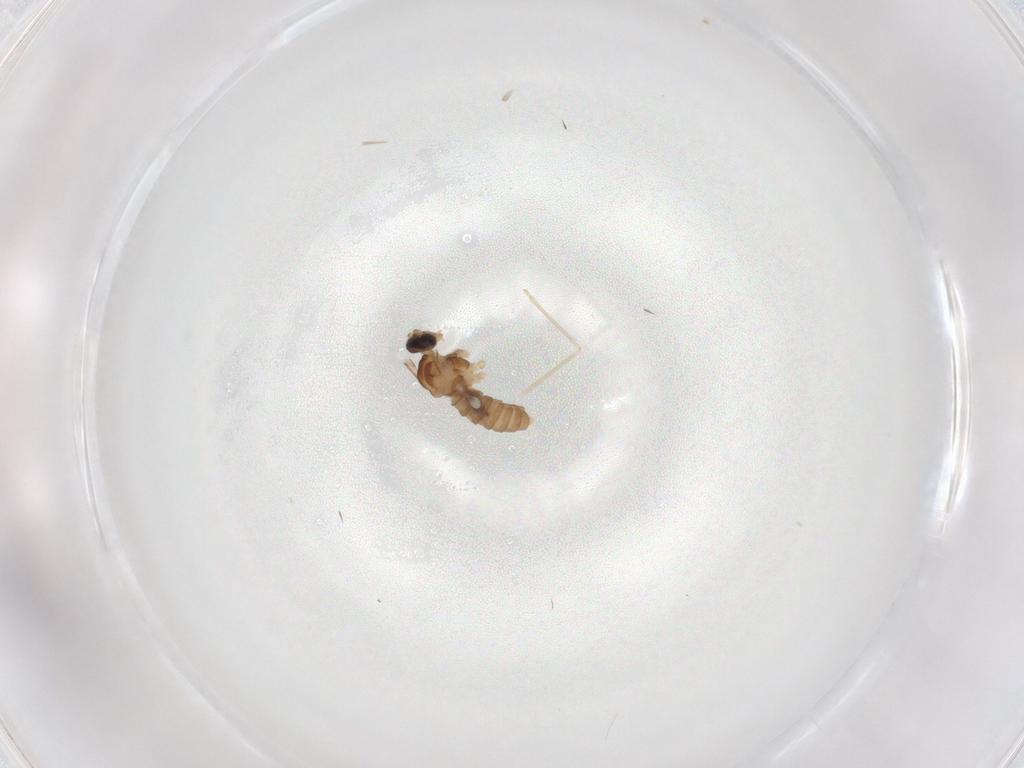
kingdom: Animalia
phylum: Arthropoda
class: Insecta
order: Diptera
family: Cecidomyiidae
